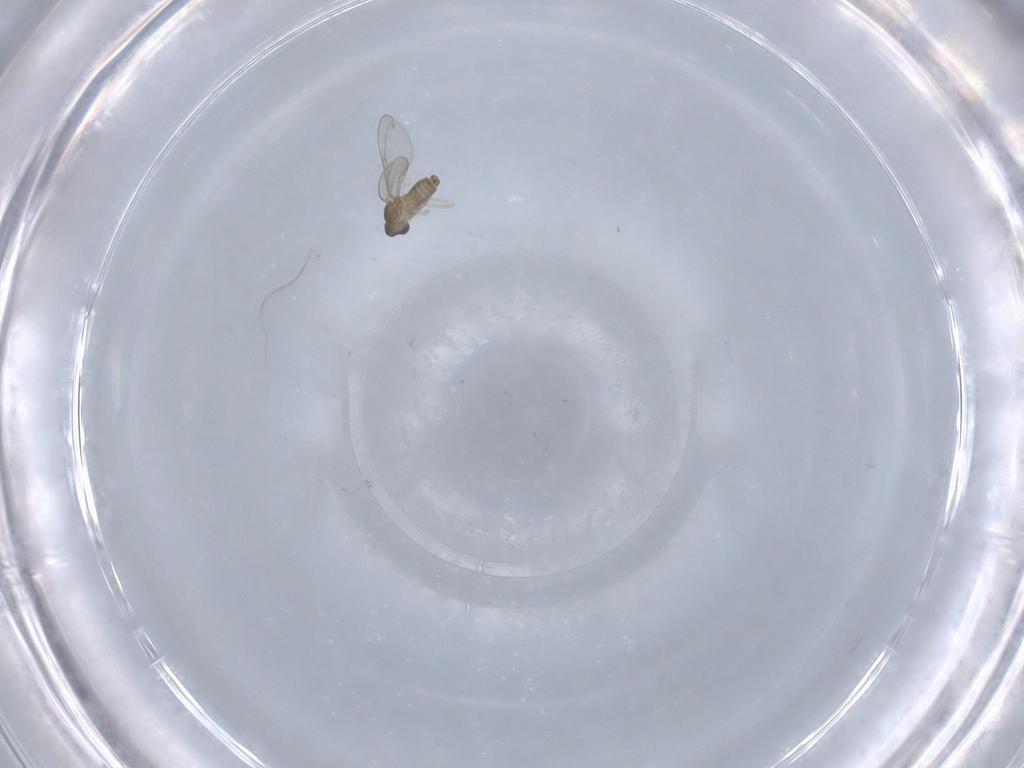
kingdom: Animalia
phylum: Arthropoda
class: Insecta
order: Diptera
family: Cecidomyiidae
